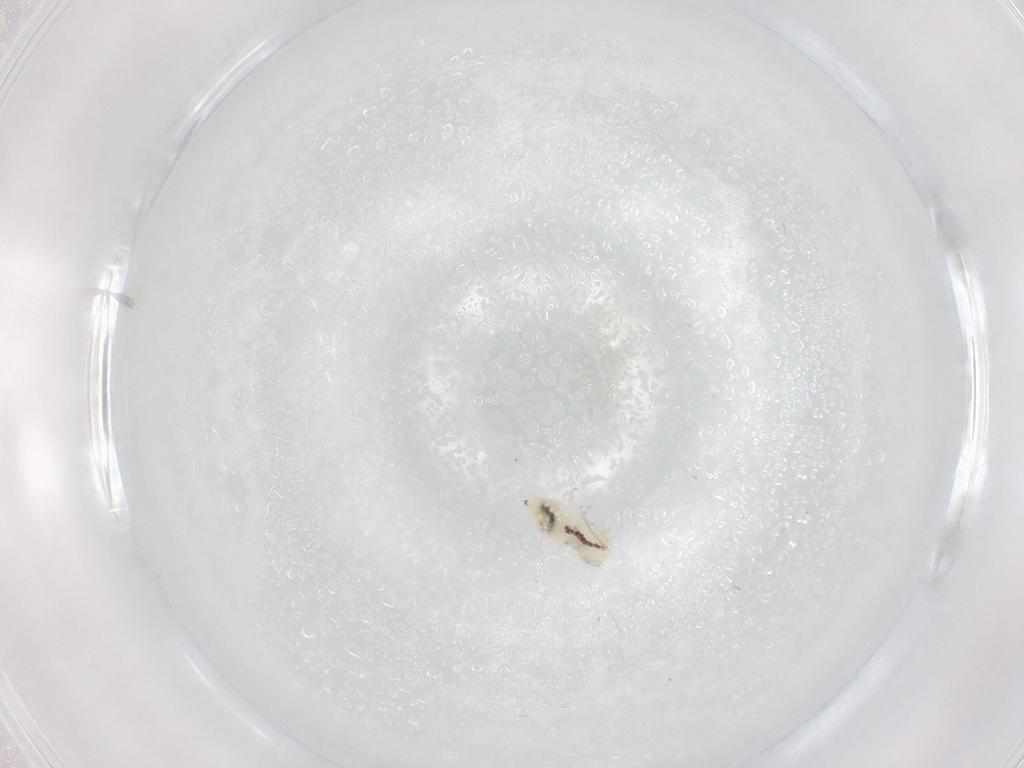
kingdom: Animalia
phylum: Arthropoda
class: Insecta
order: Psocodea
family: Philotarsidae
